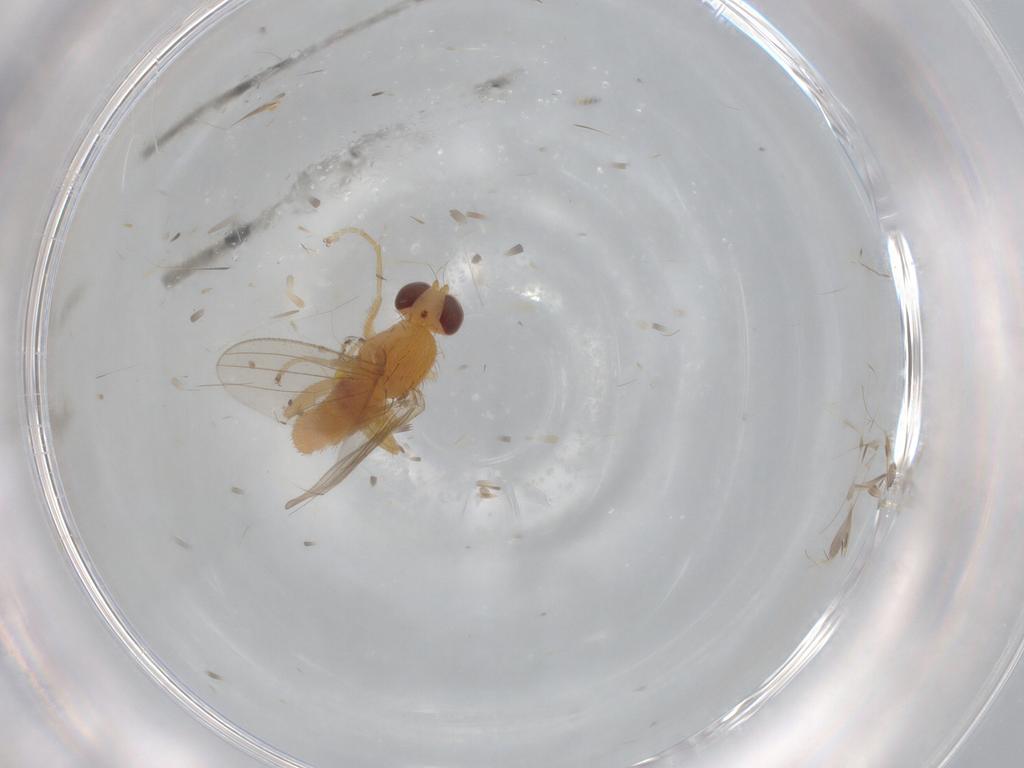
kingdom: Animalia
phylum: Arthropoda
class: Insecta
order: Diptera
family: Chyromyidae
